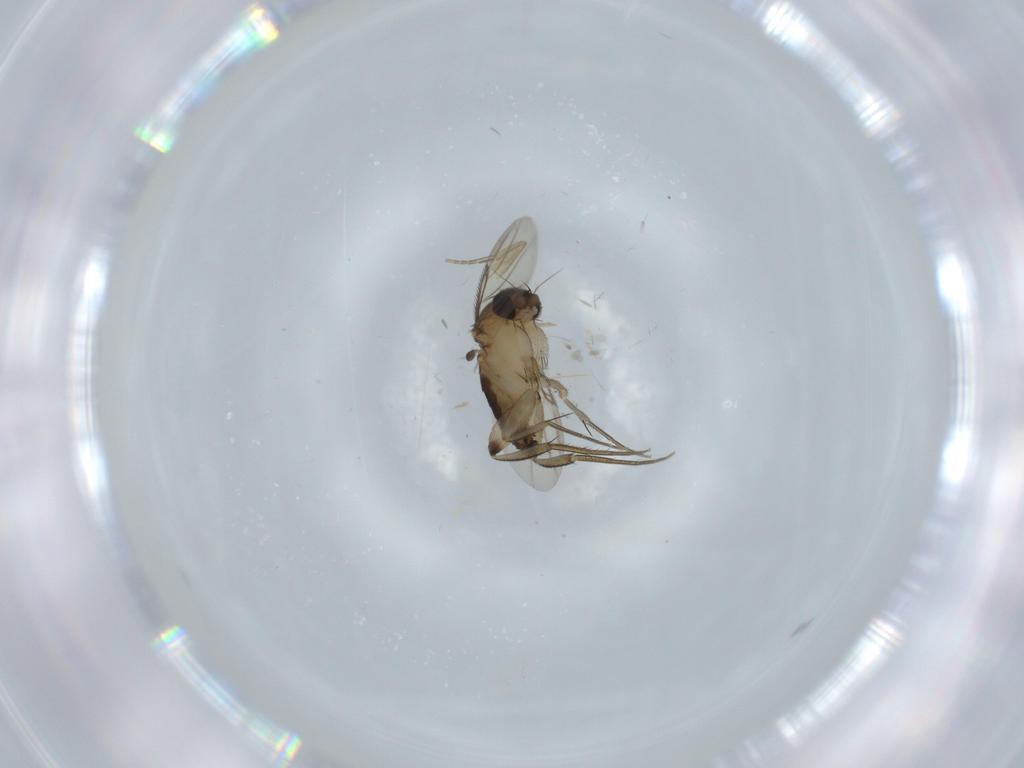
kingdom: Animalia
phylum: Arthropoda
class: Insecta
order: Diptera
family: Phoridae
